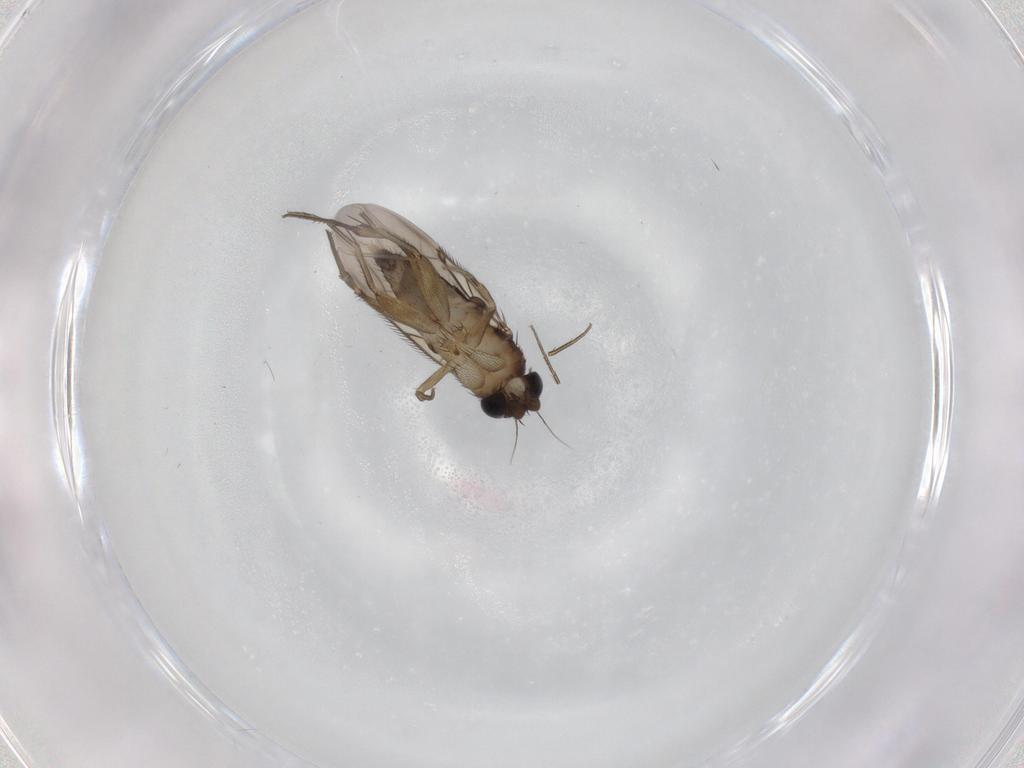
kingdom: Animalia
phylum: Arthropoda
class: Insecta
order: Diptera
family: Phoridae
